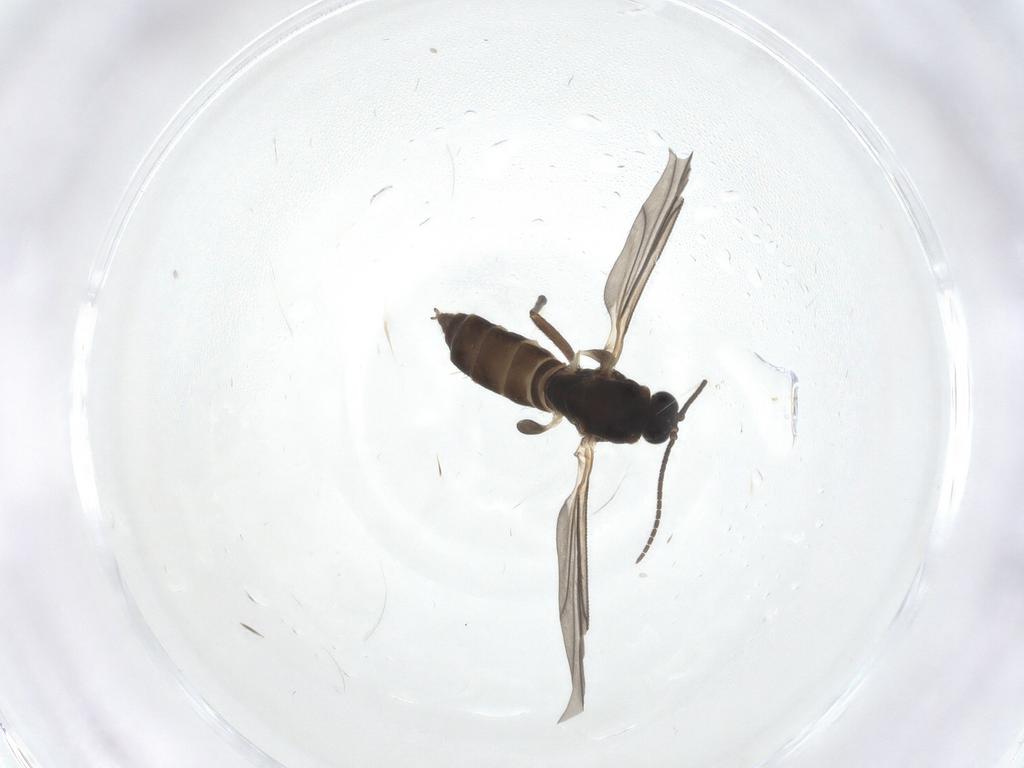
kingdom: Animalia
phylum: Arthropoda
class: Insecta
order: Diptera
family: Sciaridae
